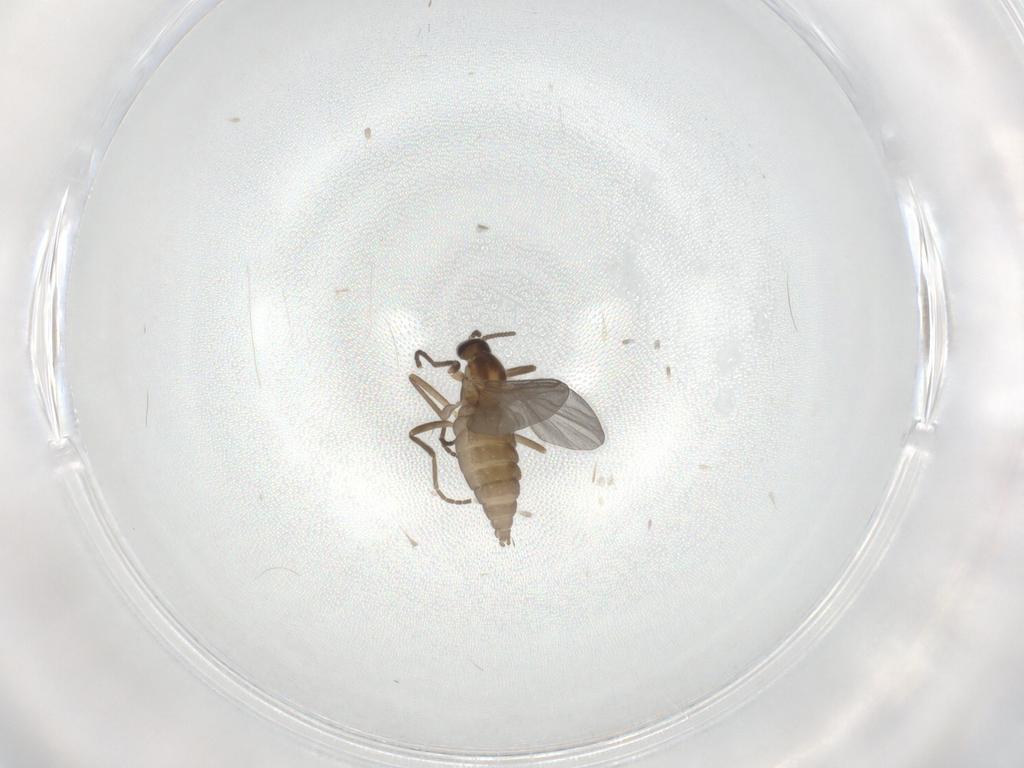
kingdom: Animalia
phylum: Arthropoda
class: Insecta
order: Diptera
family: Cecidomyiidae
